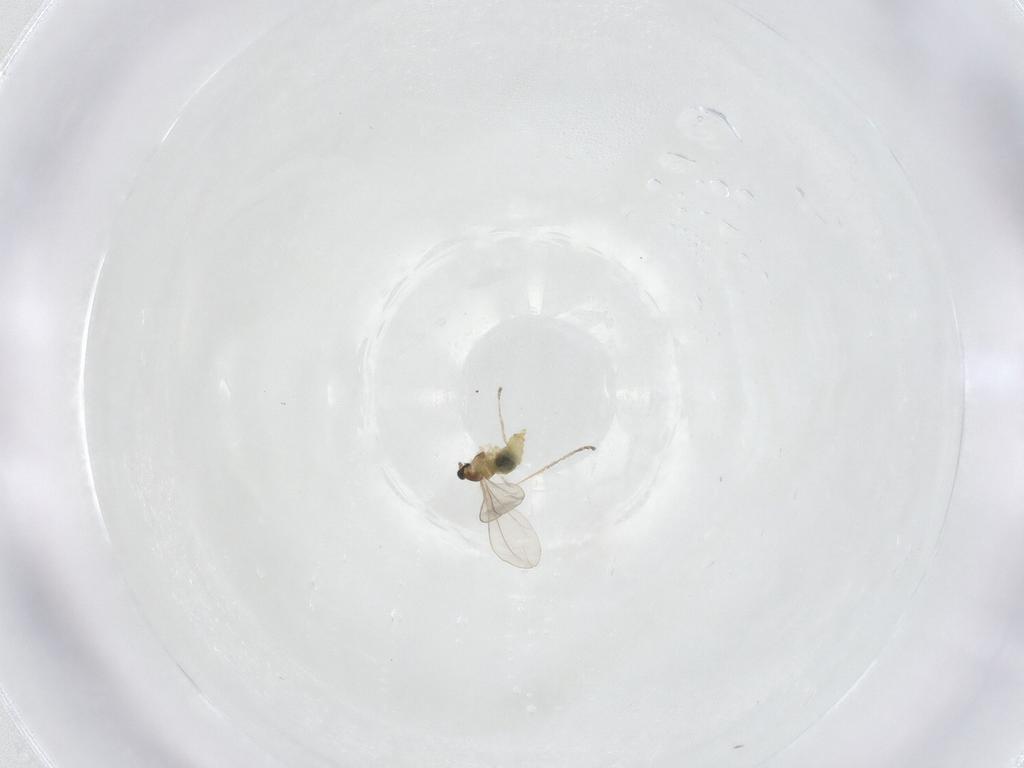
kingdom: Animalia
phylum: Arthropoda
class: Insecta
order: Diptera
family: Cecidomyiidae
